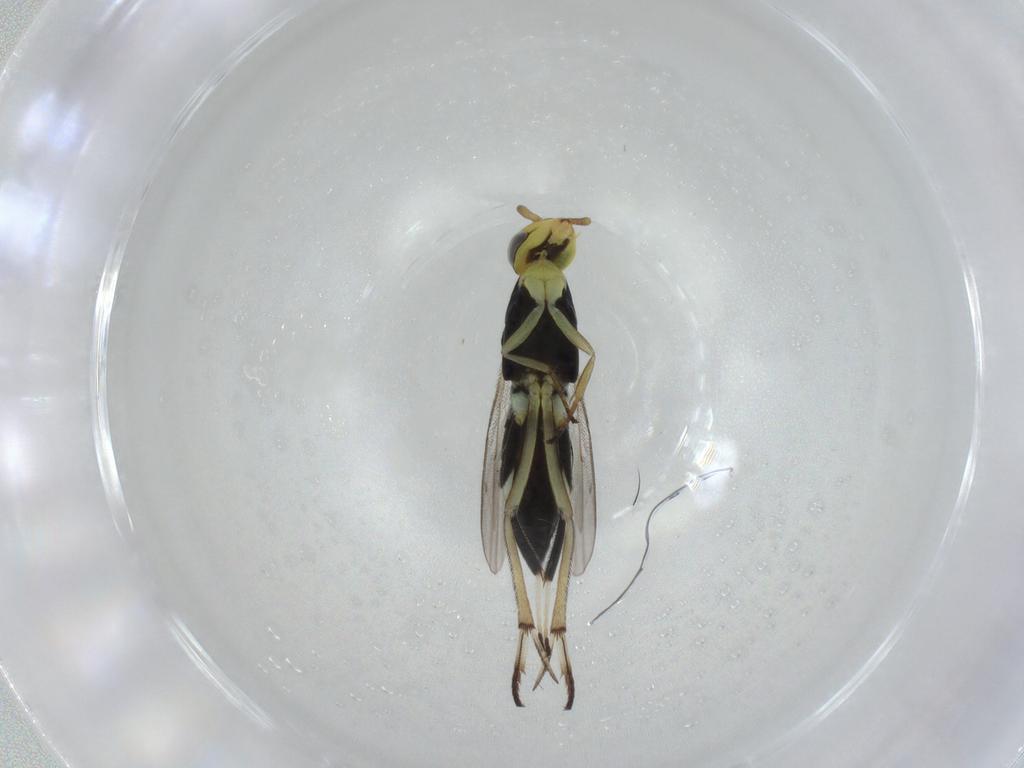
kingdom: Animalia
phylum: Arthropoda
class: Insecta
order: Hymenoptera
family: Eupelmidae
